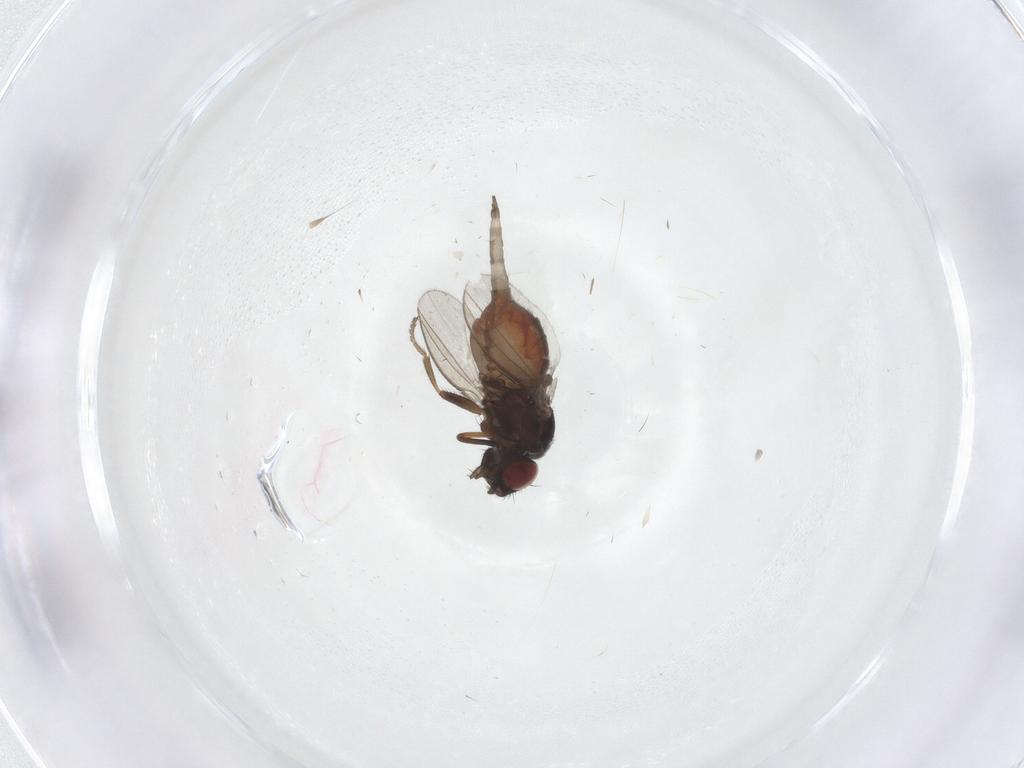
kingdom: Animalia
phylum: Arthropoda
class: Insecta
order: Diptera
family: Milichiidae
